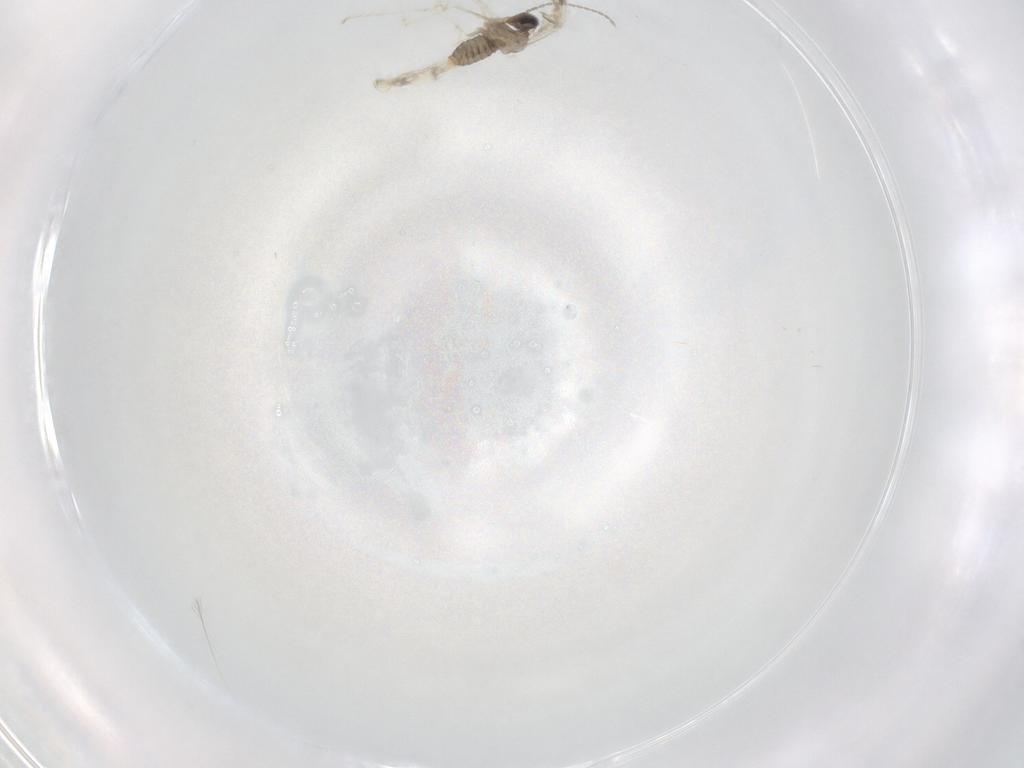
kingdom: Animalia
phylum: Arthropoda
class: Insecta
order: Diptera
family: Cecidomyiidae
